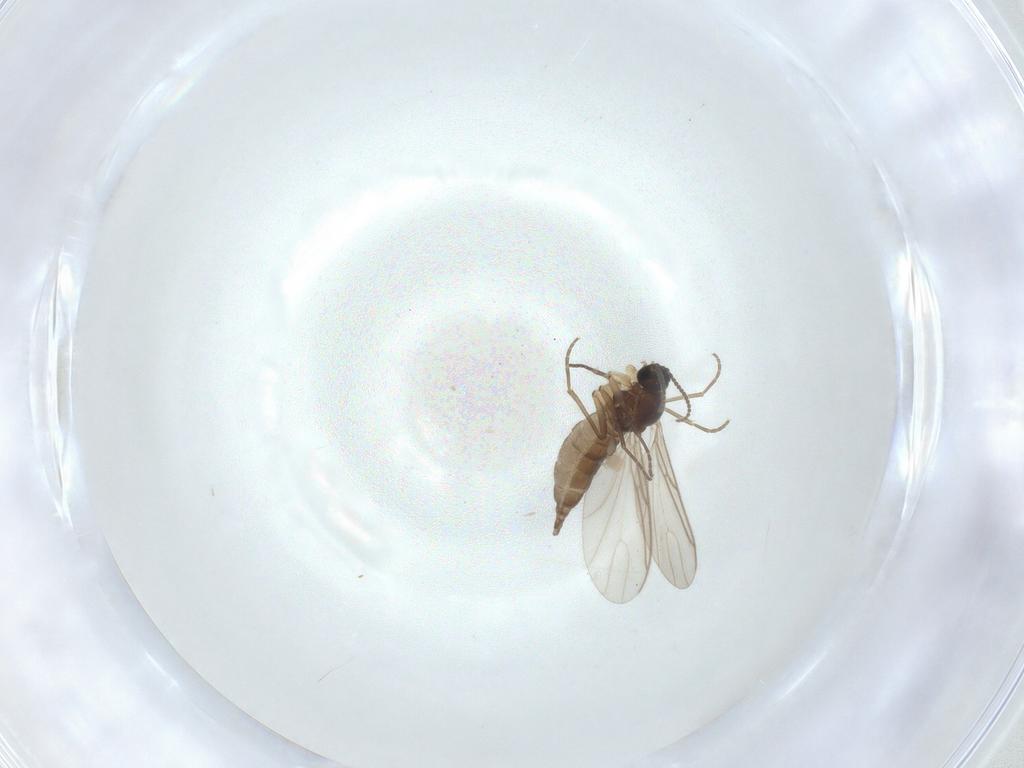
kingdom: Animalia
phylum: Arthropoda
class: Insecta
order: Diptera
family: Sciaridae
